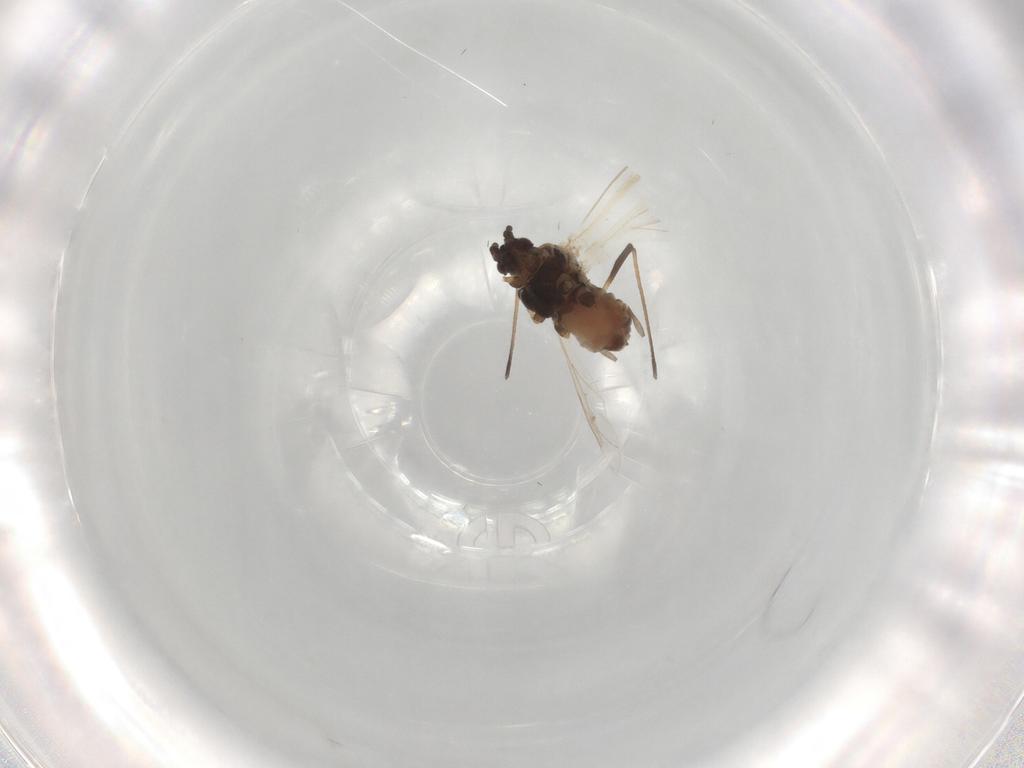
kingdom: Animalia
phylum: Arthropoda
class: Insecta
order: Hemiptera
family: Aphididae
